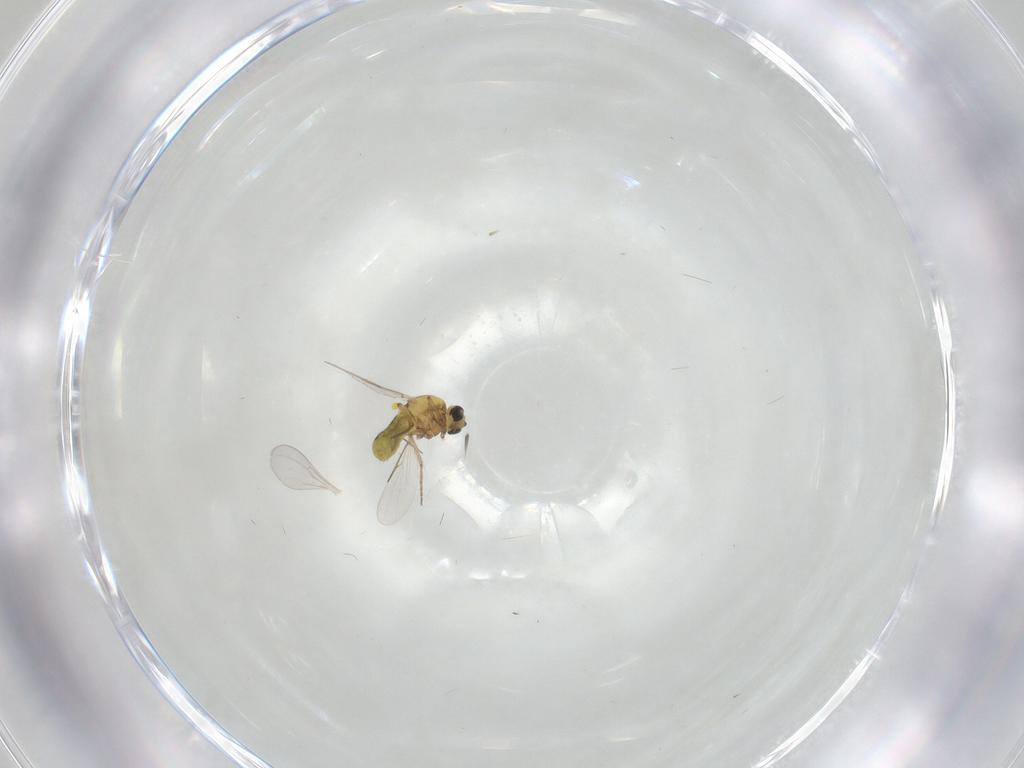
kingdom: Animalia
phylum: Arthropoda
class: Insecta
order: Diptera
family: Ceratopogonidae
